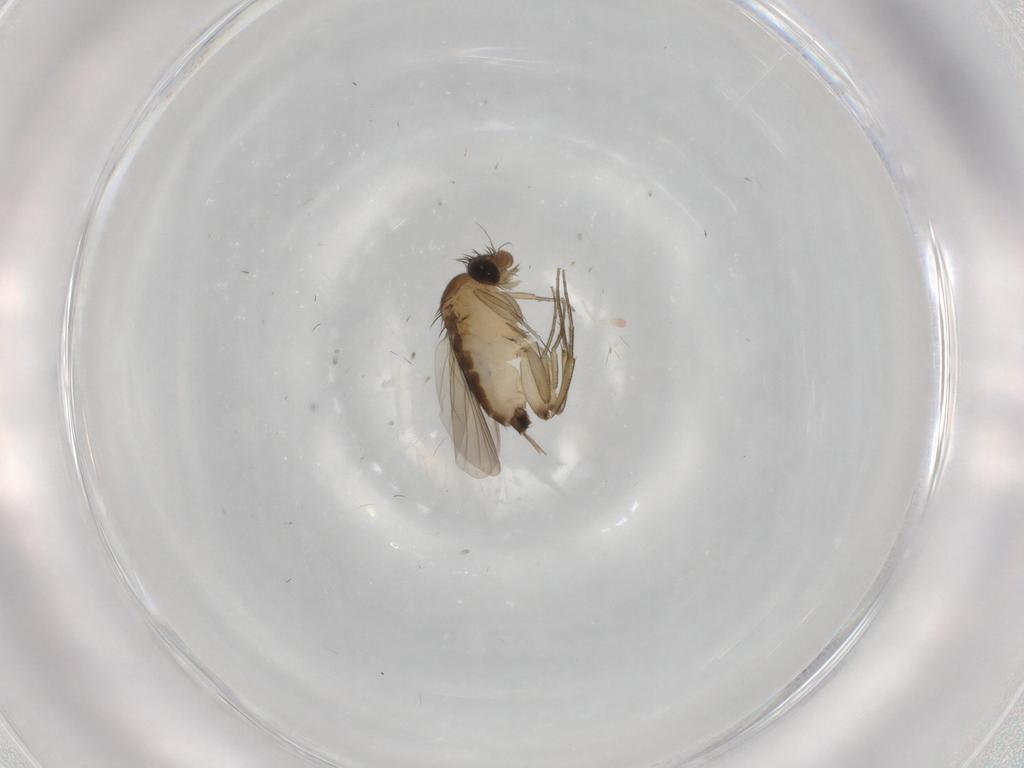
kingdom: Animalia
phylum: Arthropoda
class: Insecta
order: Diptera
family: Phoridae
